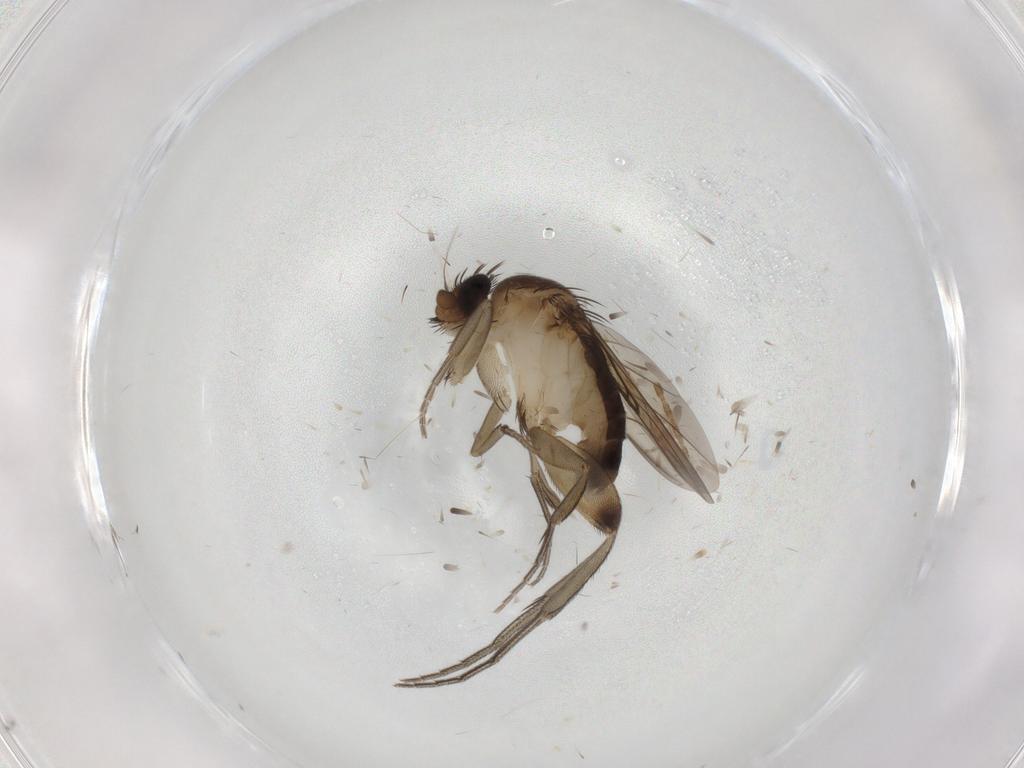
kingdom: Animalia
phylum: Arthropoda
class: Insecta
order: Diptera
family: Phoridae
